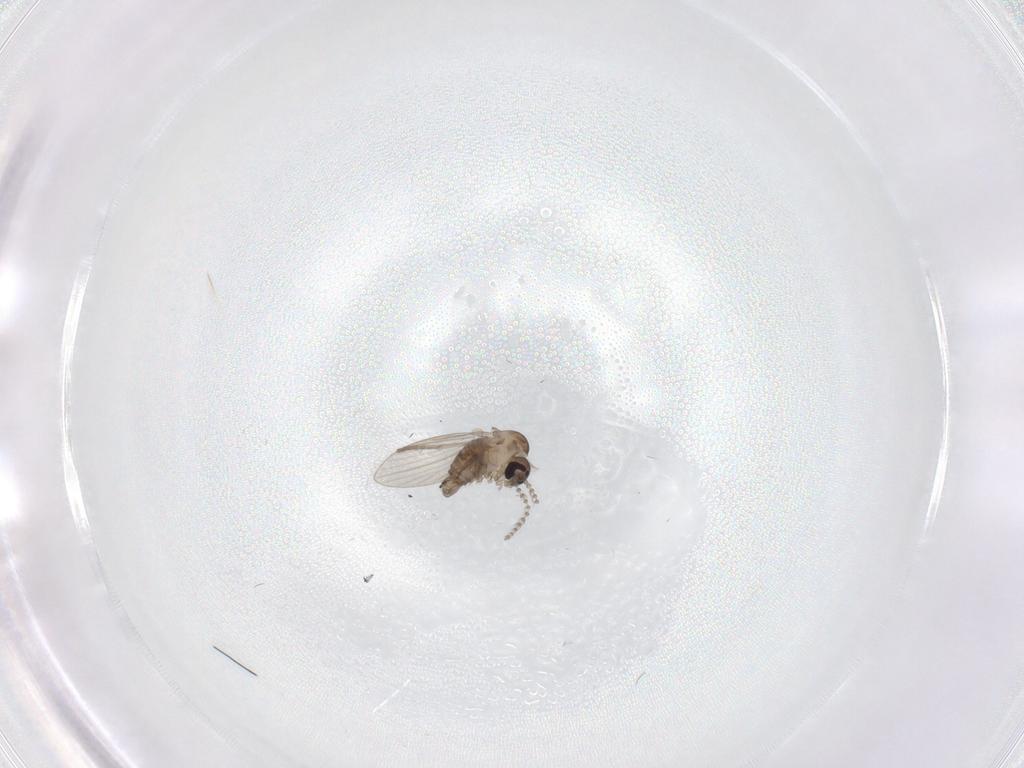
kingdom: Animalia
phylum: Arthropoda
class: Insecta
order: Diptera
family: Psychodidae
